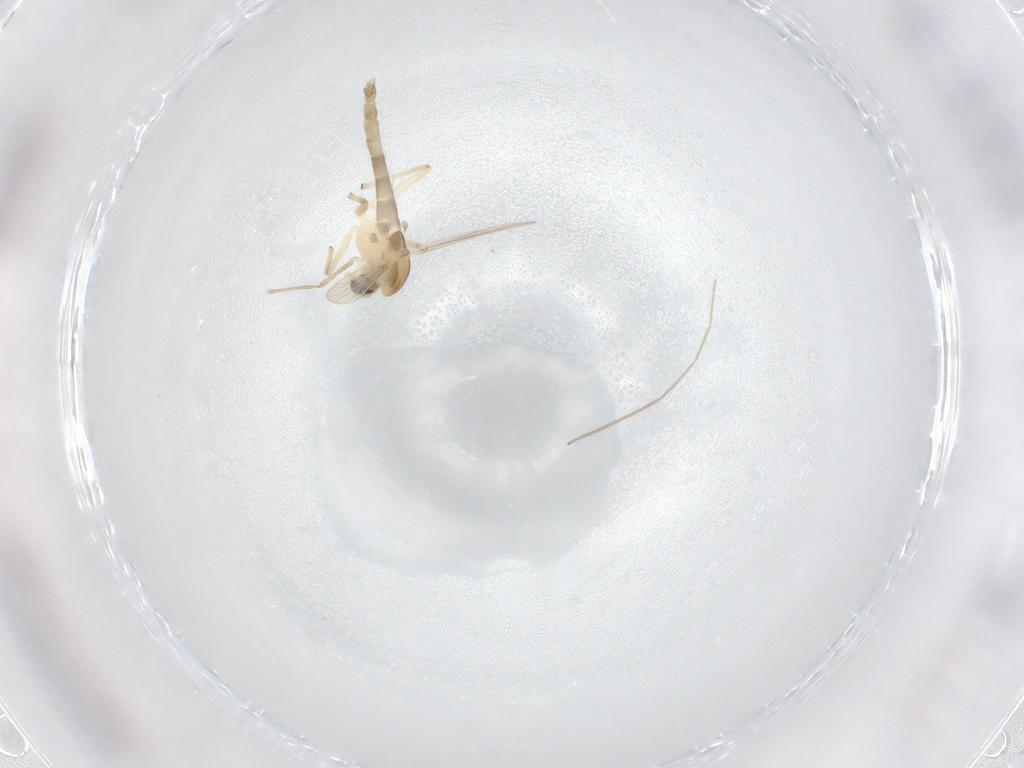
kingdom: Animalia
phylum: Arthropoda
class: Insecta
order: Diptera
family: Chironomidae
